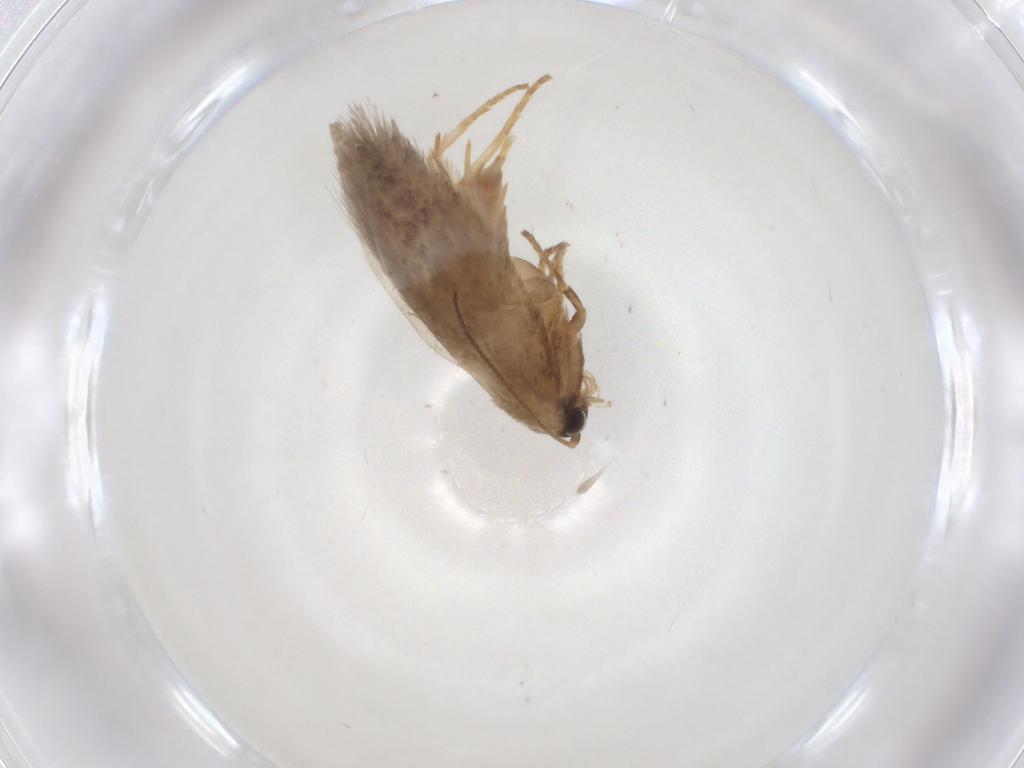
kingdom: Animalia
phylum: Arthropoda
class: Insecta
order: Lepidoptera
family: Nepticulidae
